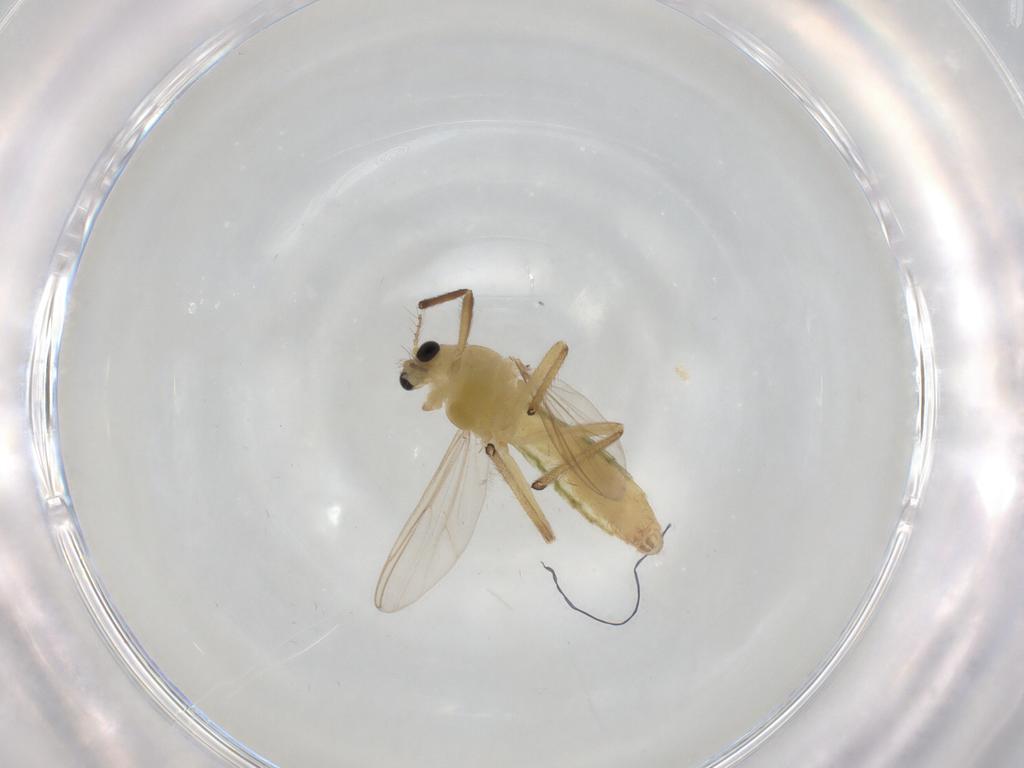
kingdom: Animalia
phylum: Arthropoda
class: Insecta
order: Diptera
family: Chironomidae
